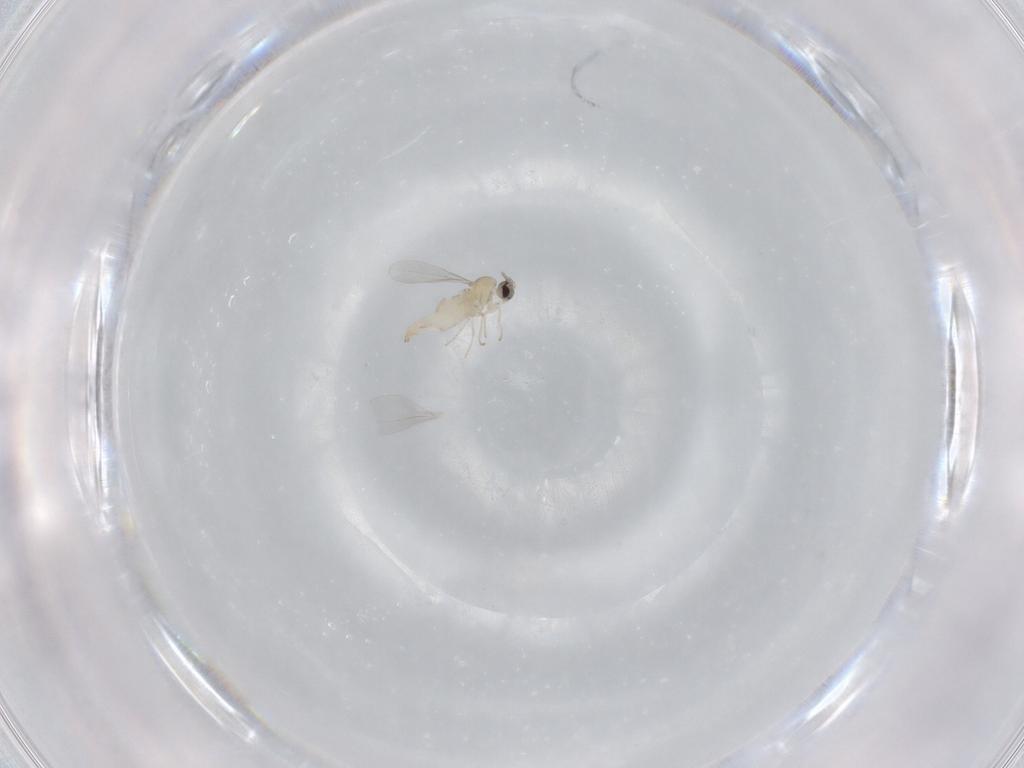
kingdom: Animalia
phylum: Arthropoda
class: Insecta
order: Diptera
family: Cecidomyiidae
